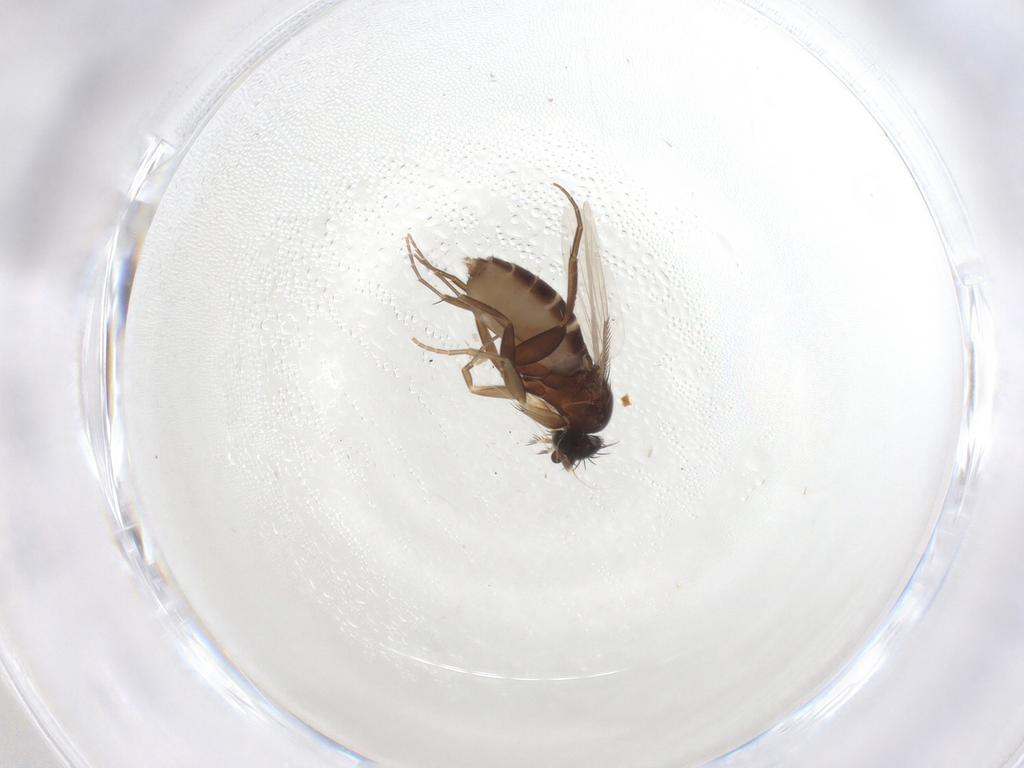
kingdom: Animalia
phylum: Arthropoda
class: Insecta
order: Diptera
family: Phoridae
